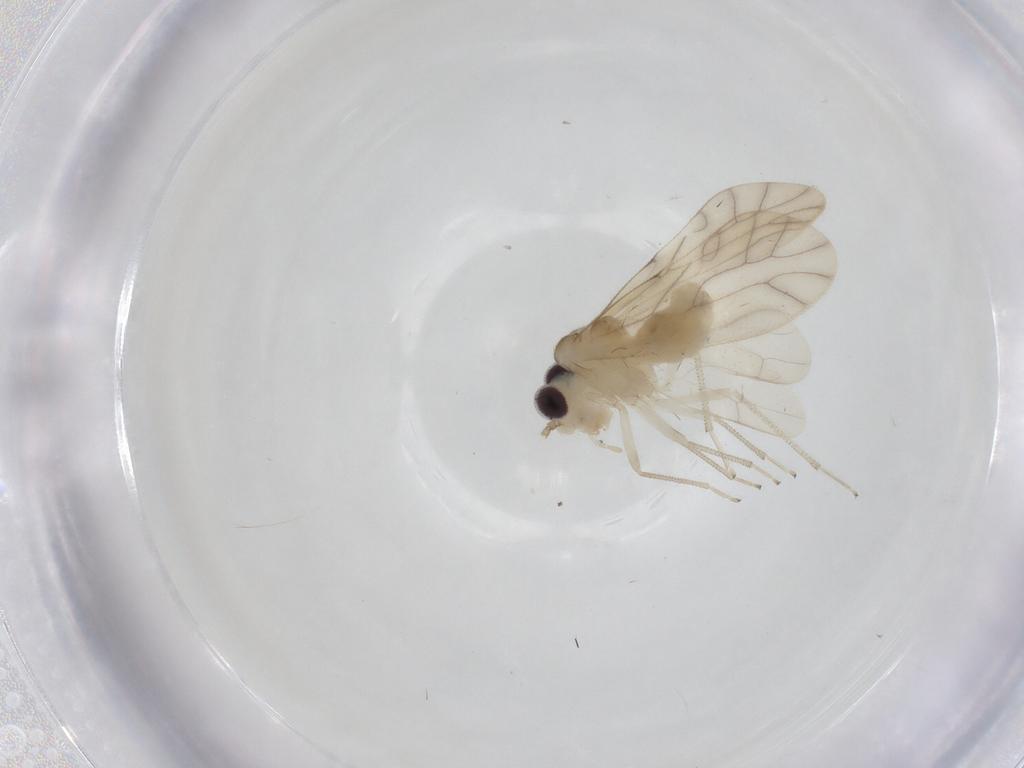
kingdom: Animalia
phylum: Arthropoda
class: Insecta
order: Psocodea
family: Caeciliusidae
